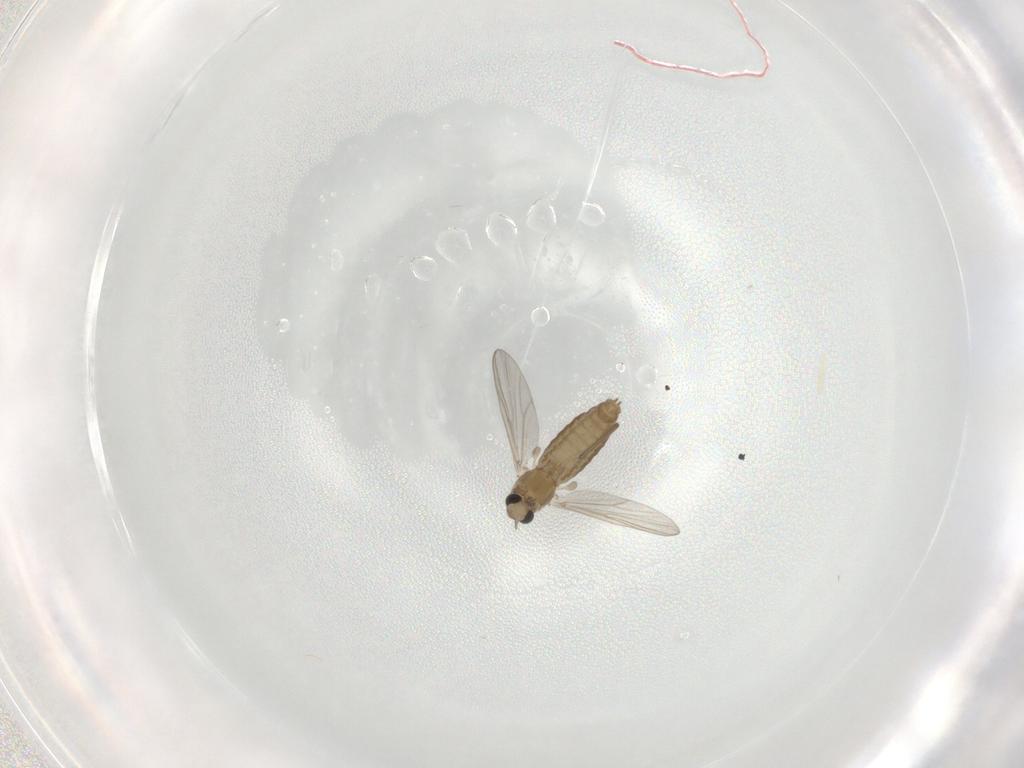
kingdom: Animalia
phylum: Arthropoda
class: Insecta
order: Diptera
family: Chironomidae
